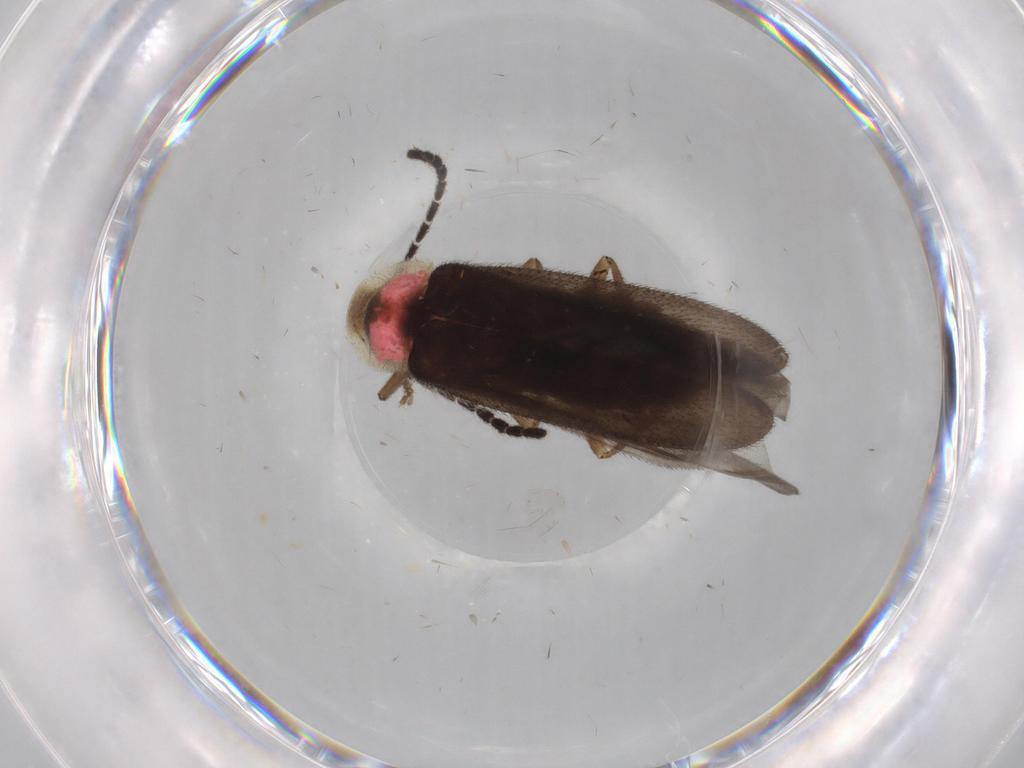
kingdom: Animalia
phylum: Arthropoda
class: Insecta
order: Coleoptera
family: Lampyridae
